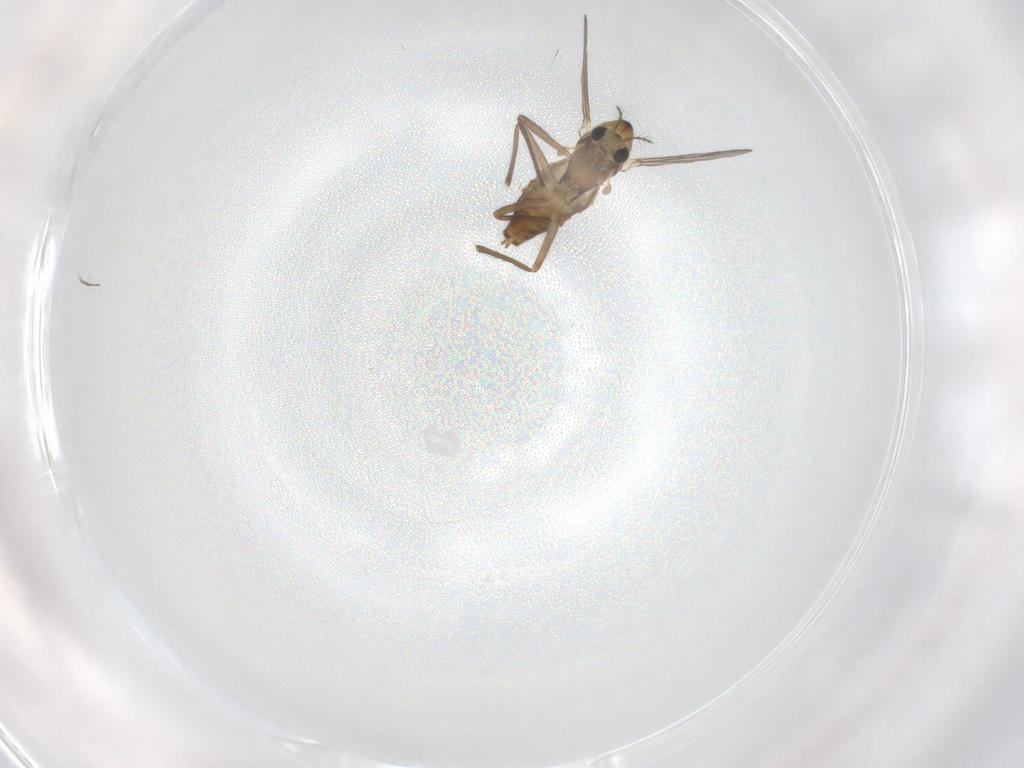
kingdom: Animalia
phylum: Arthropoda
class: Insecta
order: Diptera
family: Chironomidae
